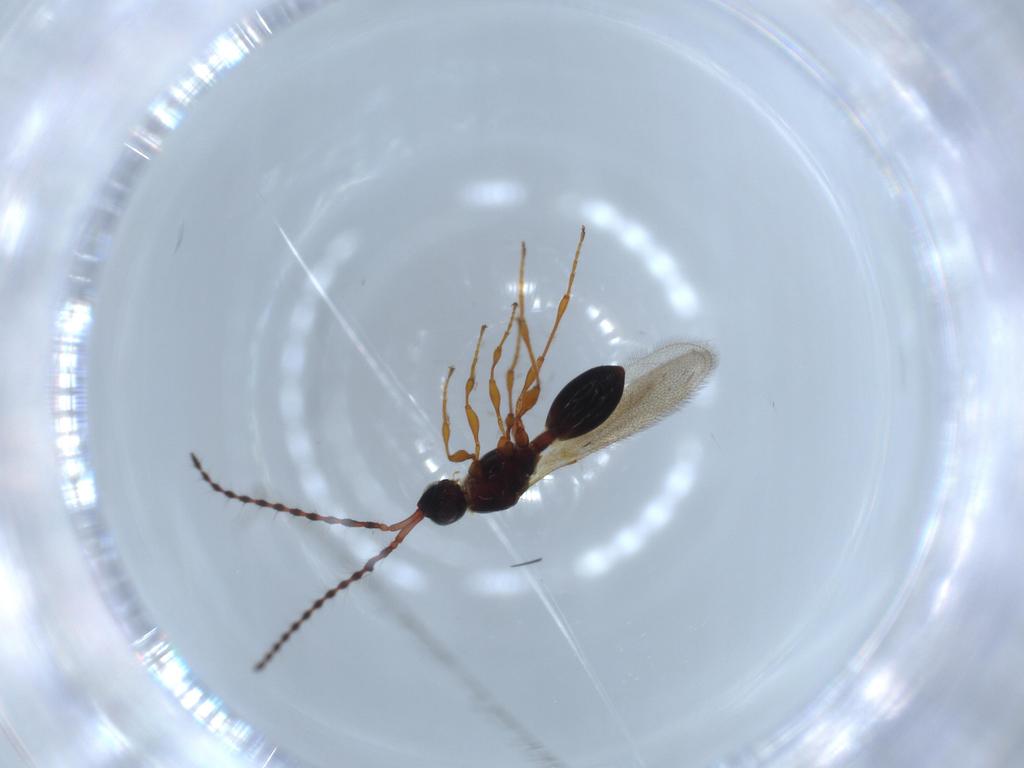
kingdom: Animalia
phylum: Arthropoda
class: Insecta
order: Hymenoptera
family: Diapriidae
